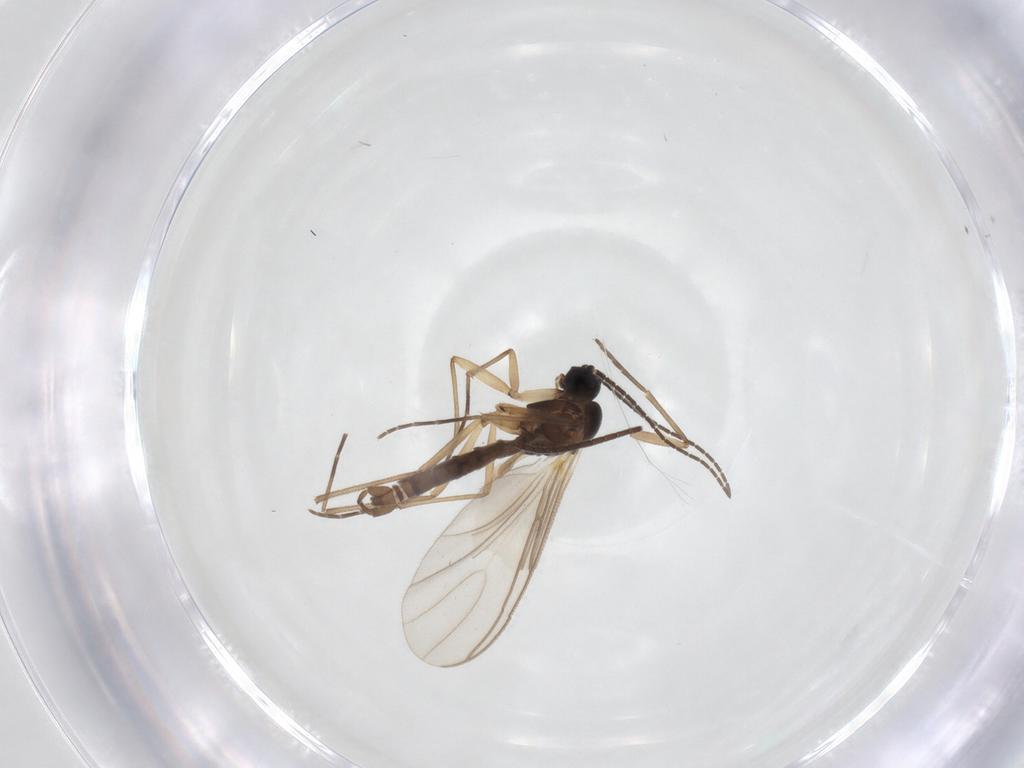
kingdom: Animalia
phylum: Arthropoda
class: Insecta
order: Diptera
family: Sciaridae
